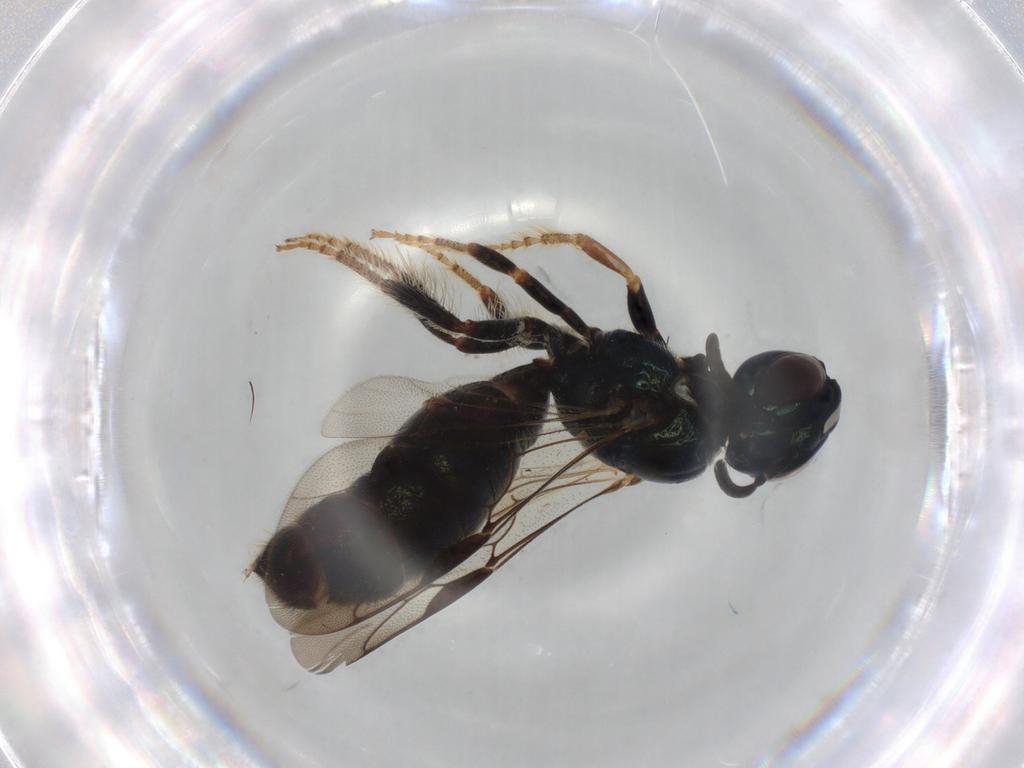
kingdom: Animalia
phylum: Arthropoda
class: Insecta
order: Hymenoptera
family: Apidae
